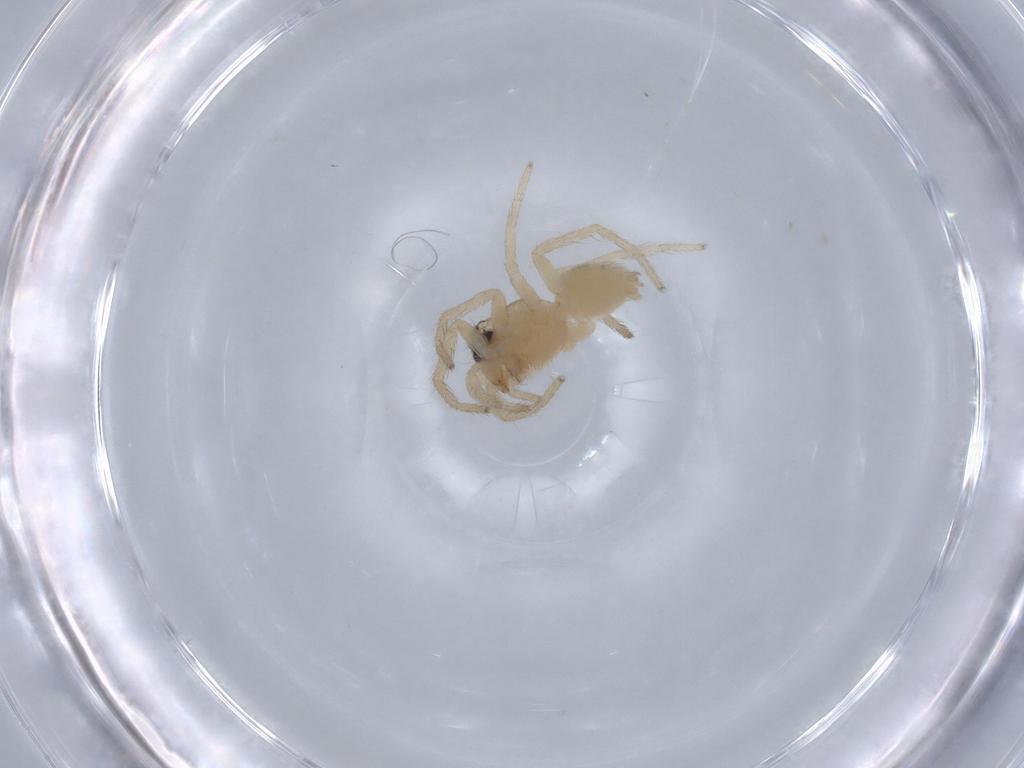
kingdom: Animalia
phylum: Arthropoda
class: Arachnida
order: Araneae
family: Lycosidae
